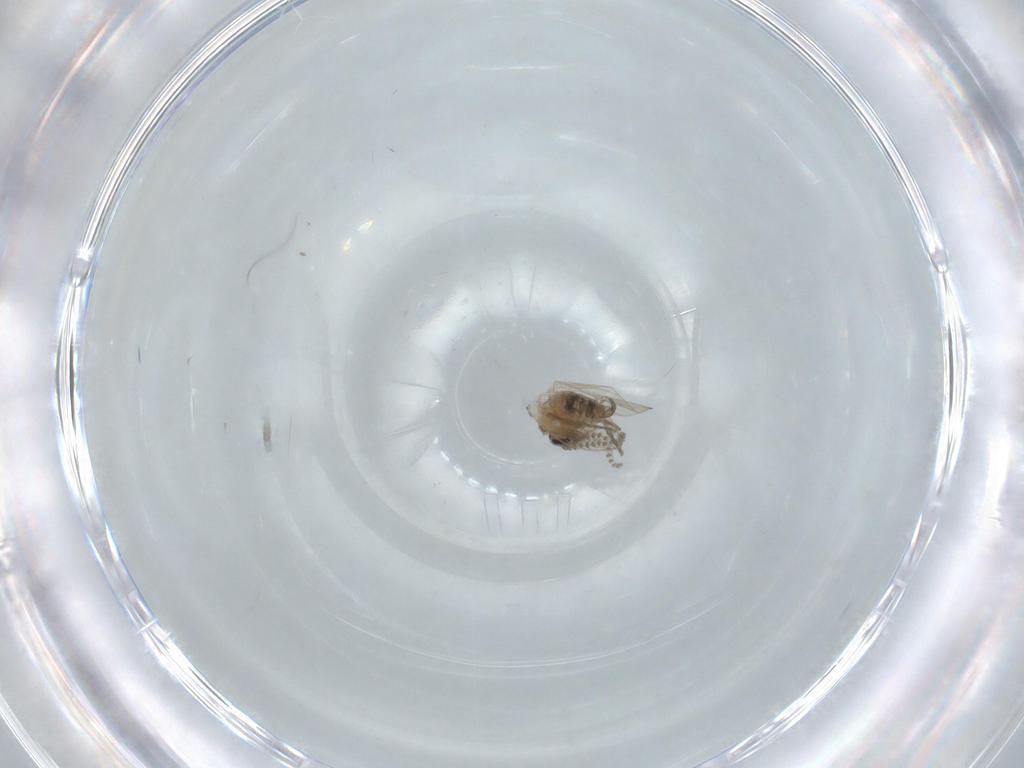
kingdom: Animalia
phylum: Arthropoda
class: Insecta
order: Diptera
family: Psychodidae
